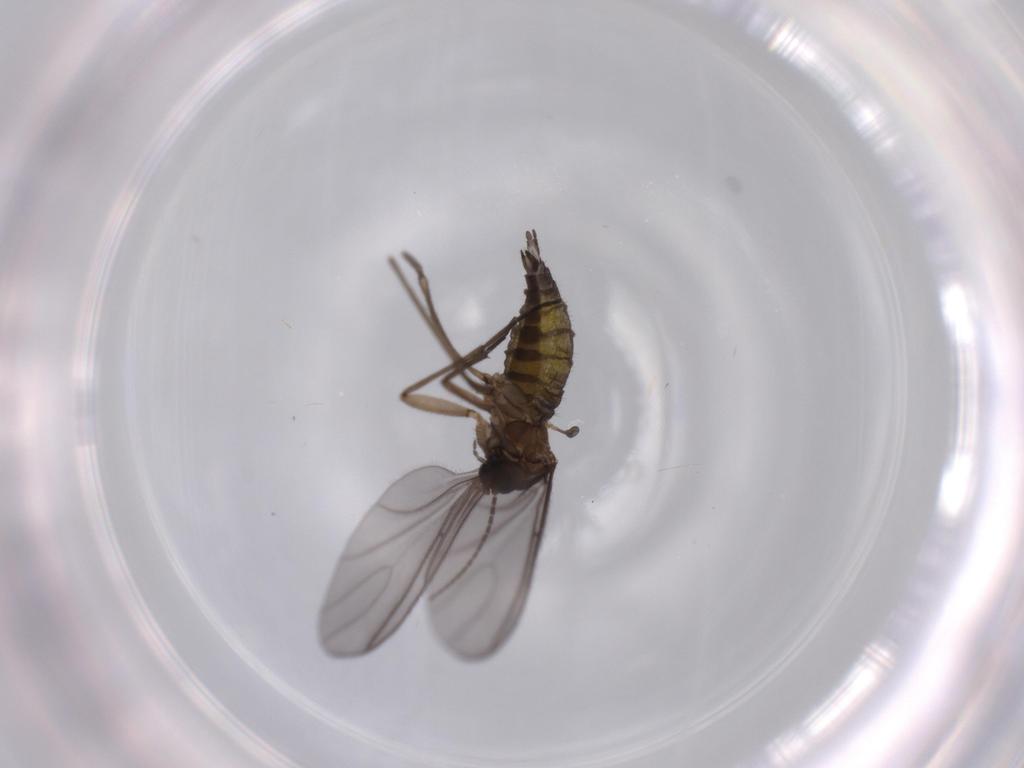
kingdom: Animalia
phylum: Arthropoda
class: Insecta
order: Diptera
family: Sciaridae
